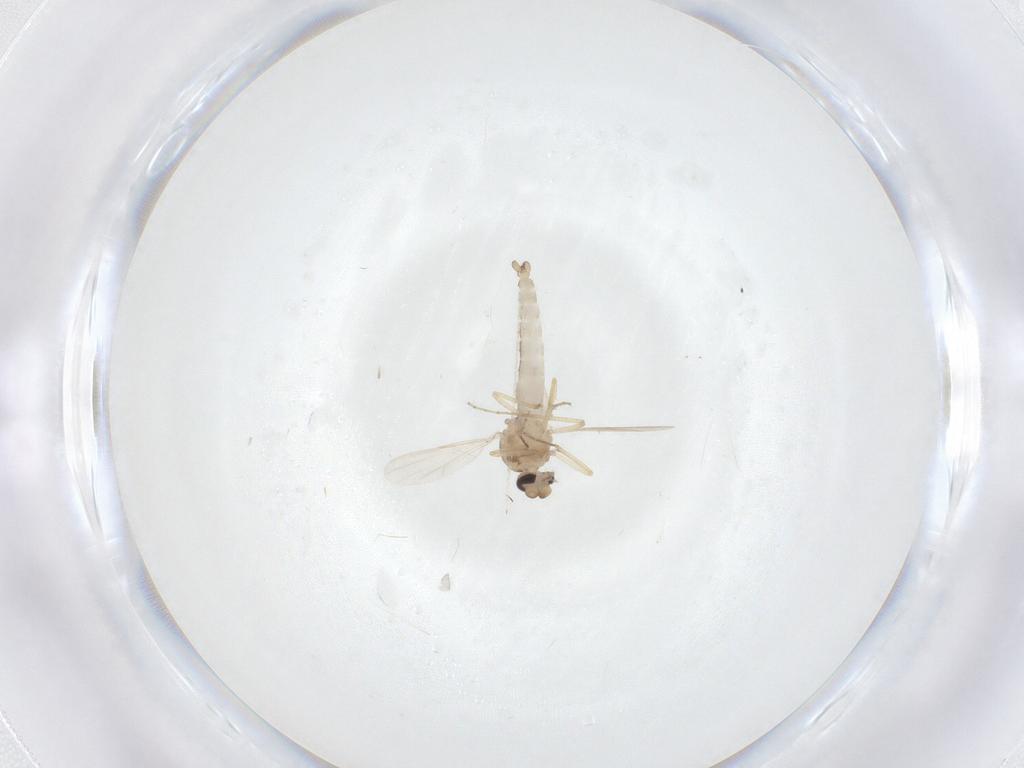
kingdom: Animalia
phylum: Arthropoda
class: Insecta
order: Diptera
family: Ceratopogonidae
